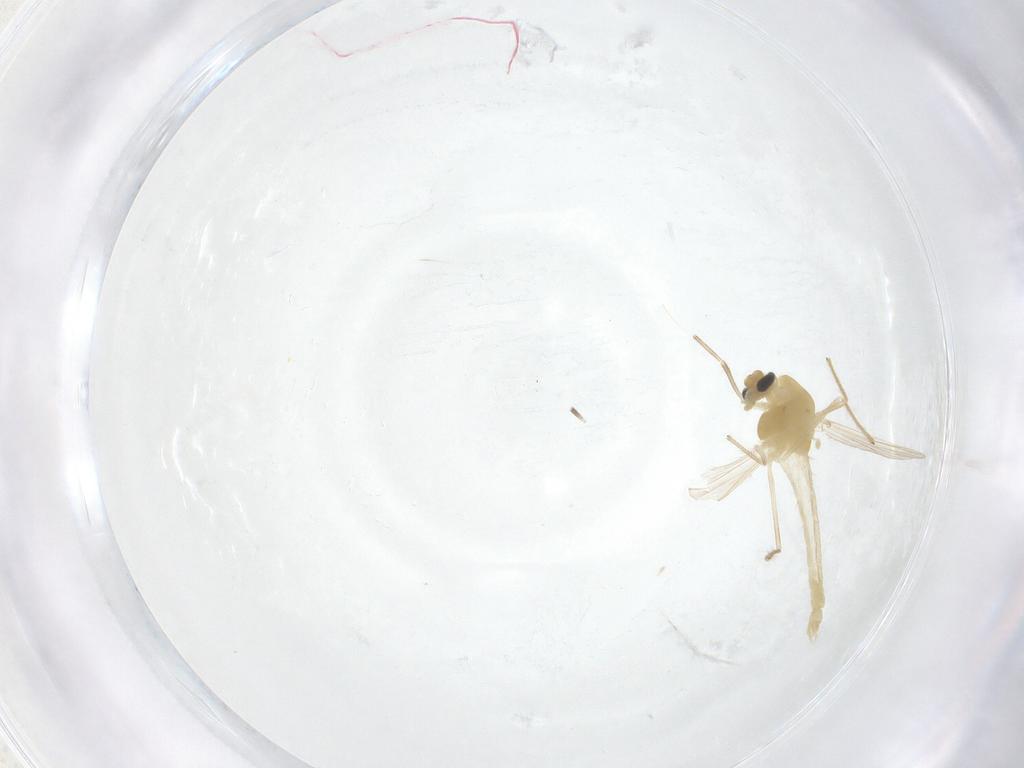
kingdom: Animalia
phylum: Arthropoda
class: Insecta
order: Diptera
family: Chironomidae
